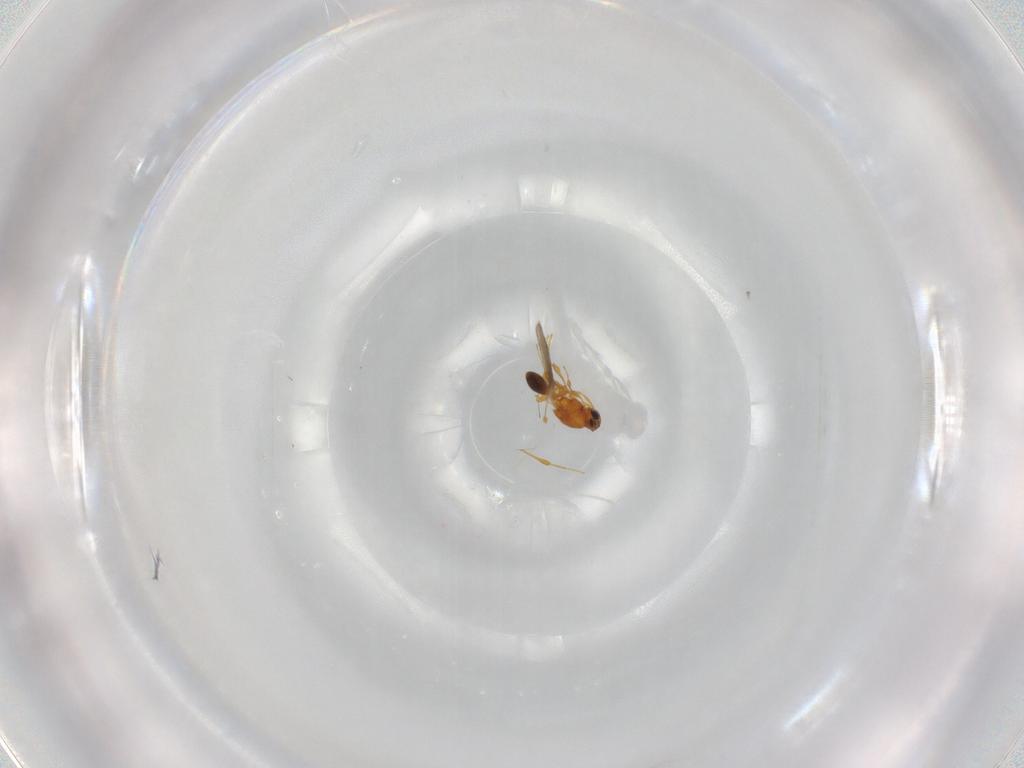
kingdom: Animalia
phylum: Arthropoda
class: Insecta
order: Hymenoptera
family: Platygastridae
